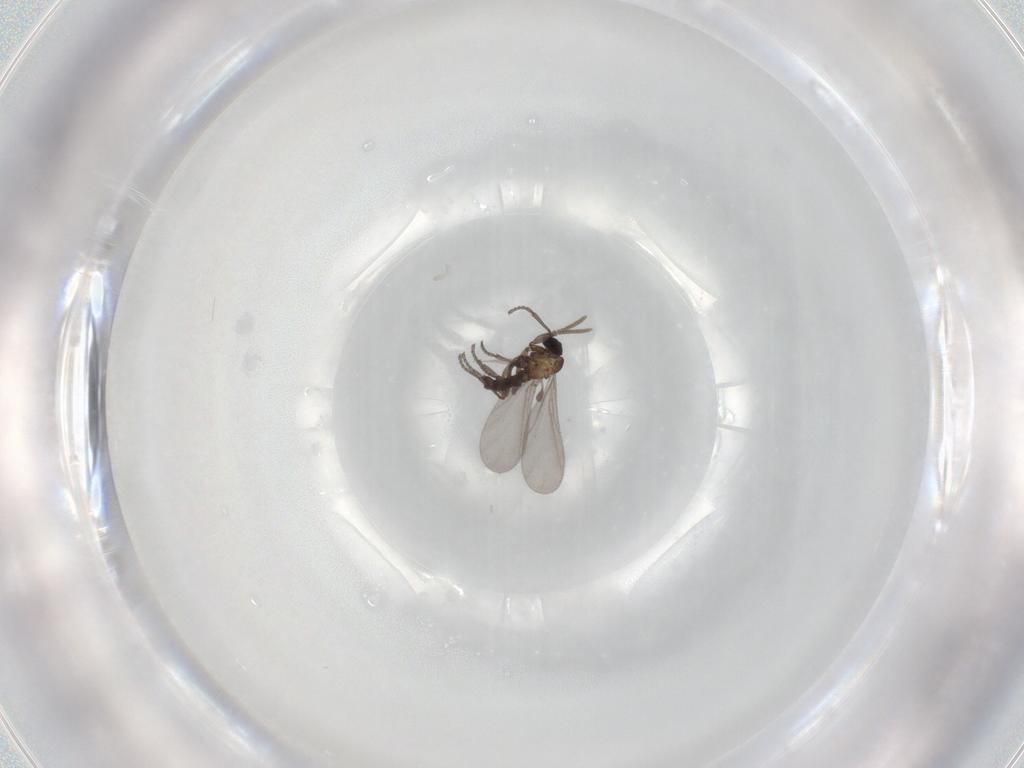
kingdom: Animalia
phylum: Arthropoda
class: Insecta
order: Diptera
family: Sciaridae
